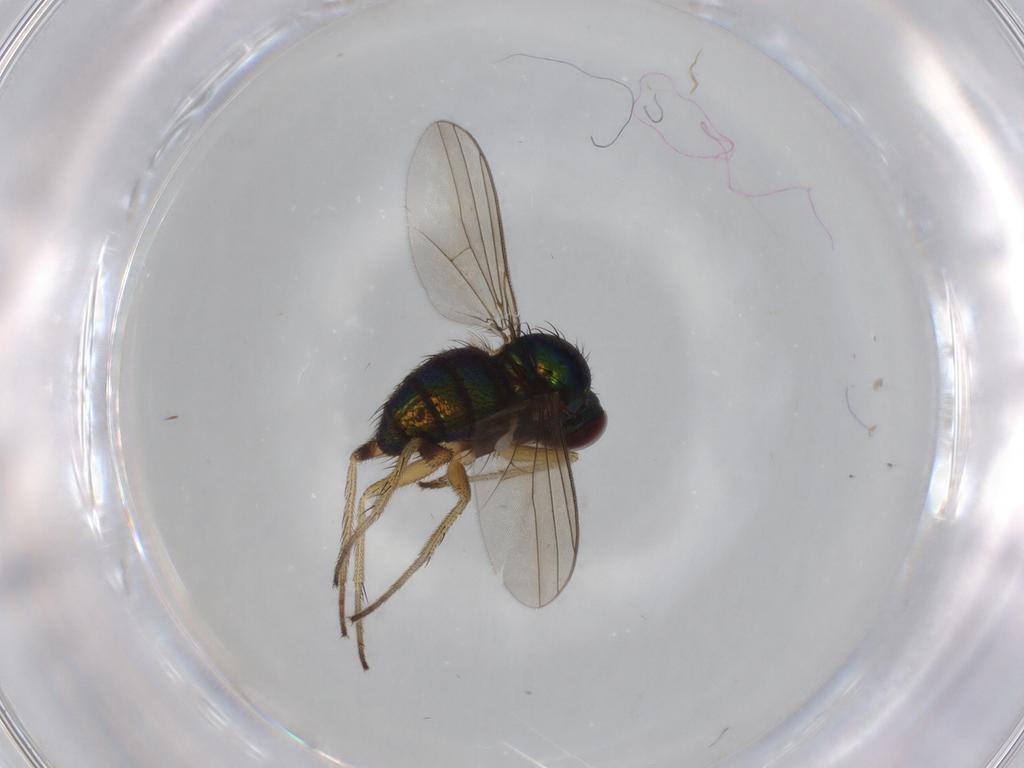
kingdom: Animalia
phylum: Arthropoda
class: Insecta
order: Diptera
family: Dolichopodidae
